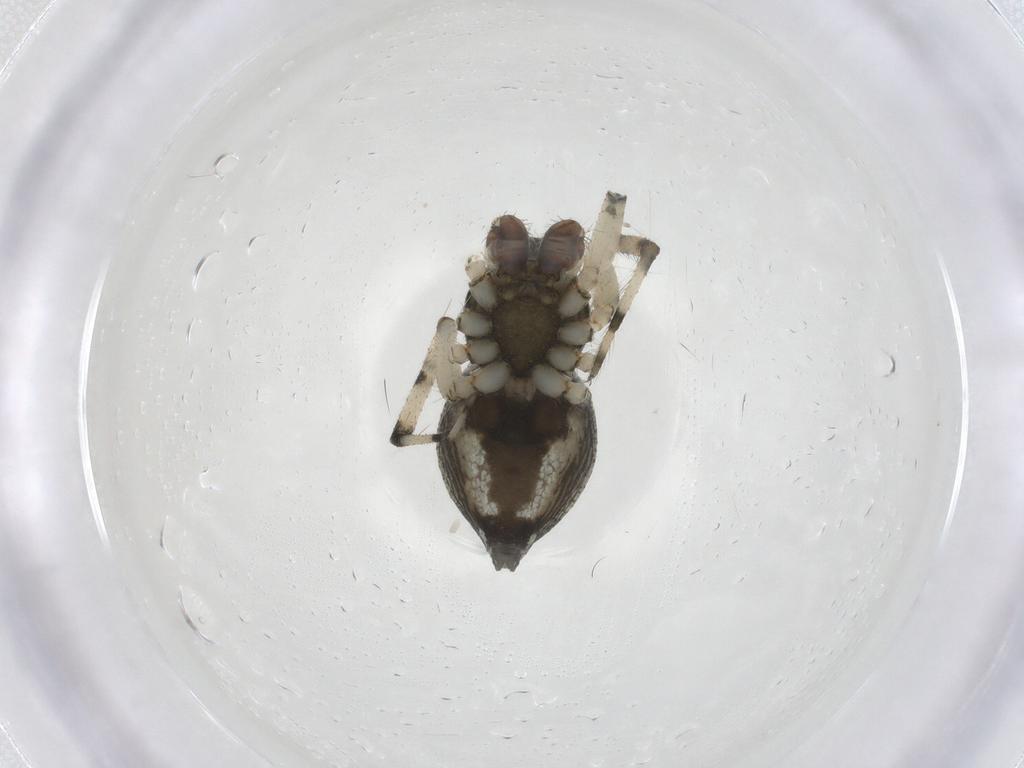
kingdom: Animalia
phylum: Arthropoda
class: Arachnida
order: Araneae
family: Theridiidae
